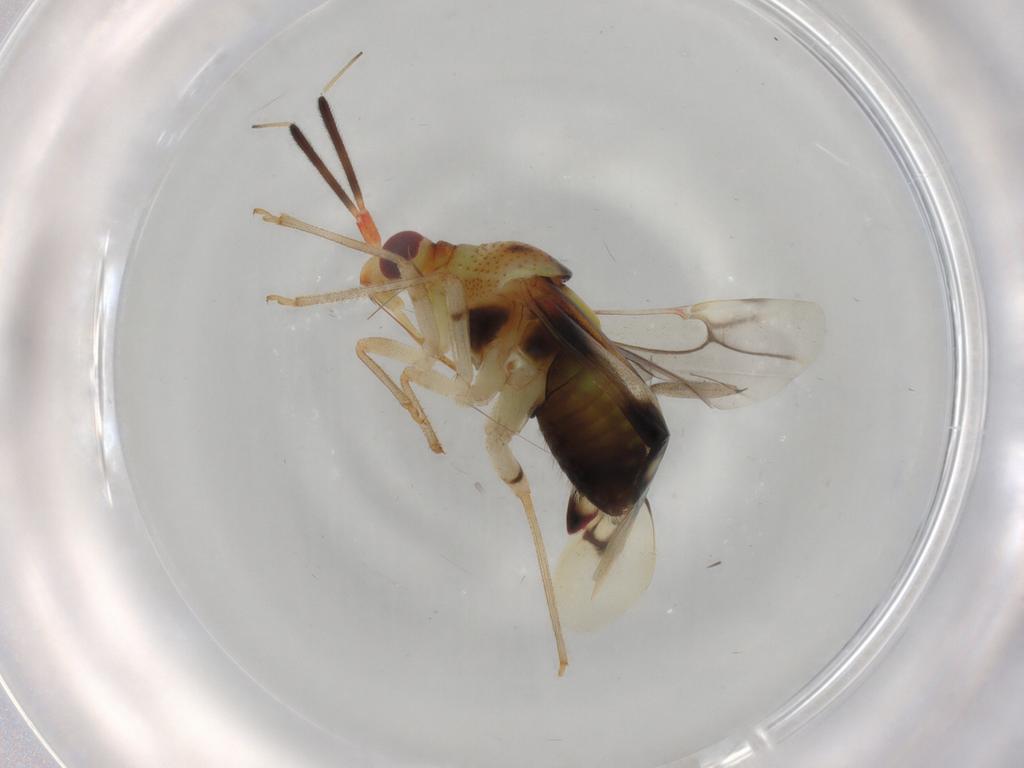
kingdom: Animalia
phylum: Arthropoda
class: Insecta
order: Hemiptera
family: Miridae
